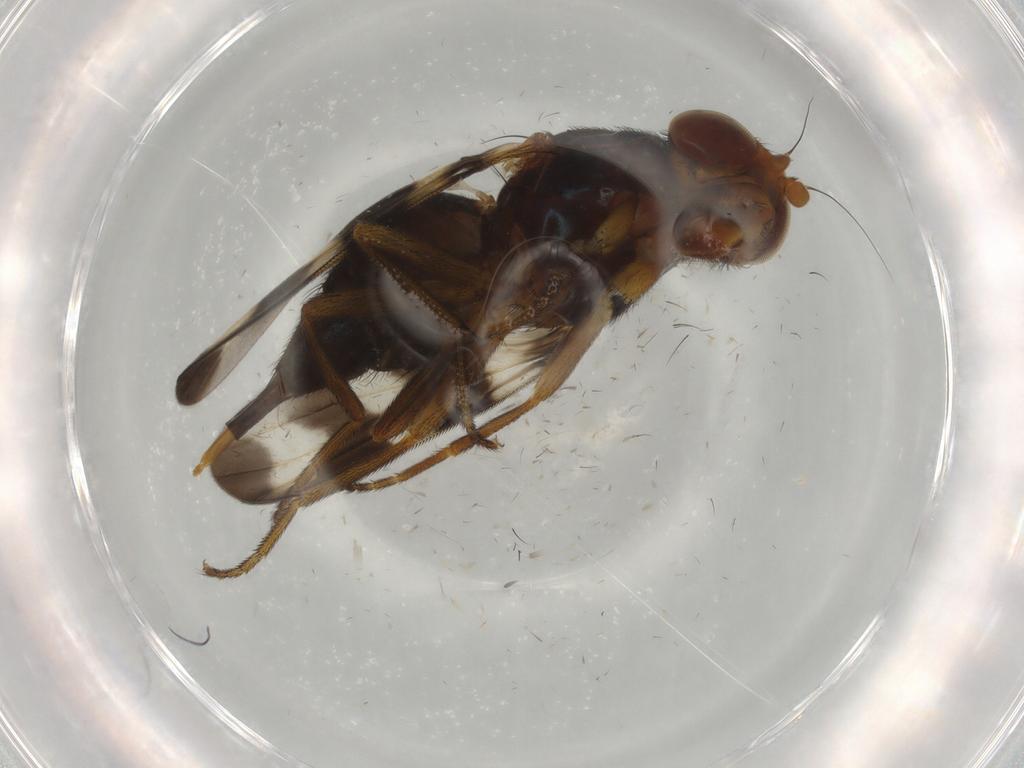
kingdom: Animalia
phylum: Arthropoda
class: Insecta
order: Diptera
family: Ulidiidae
